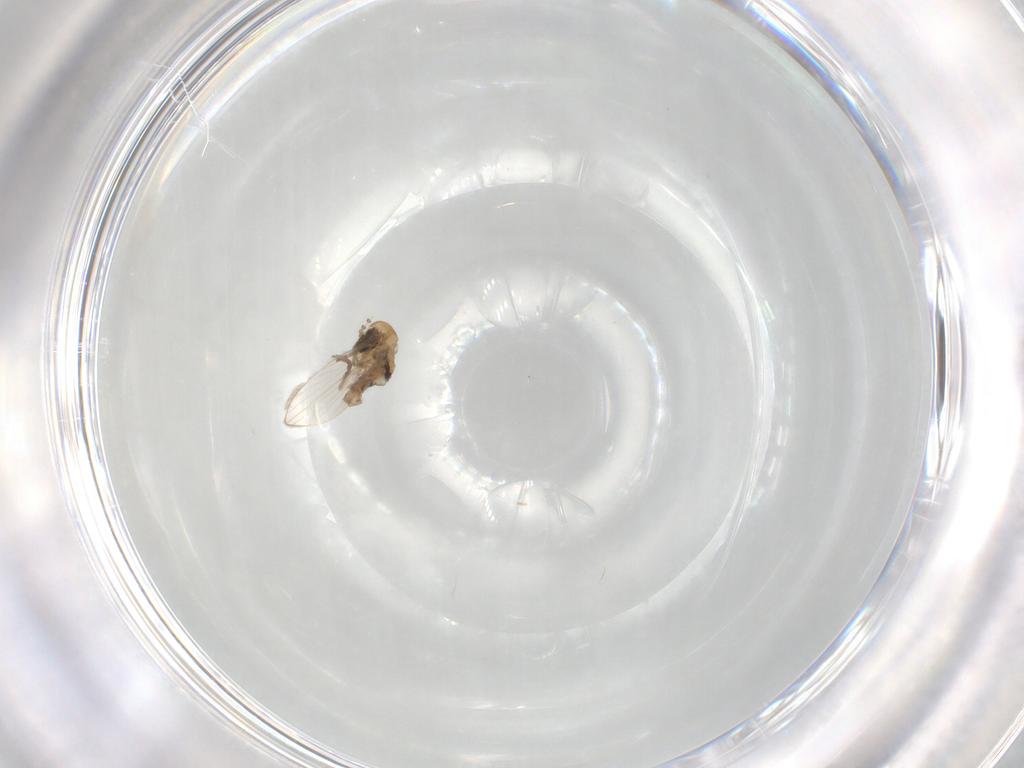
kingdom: Animalia
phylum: Arthropoda
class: Insecta
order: Diptera
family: Psychodidae
